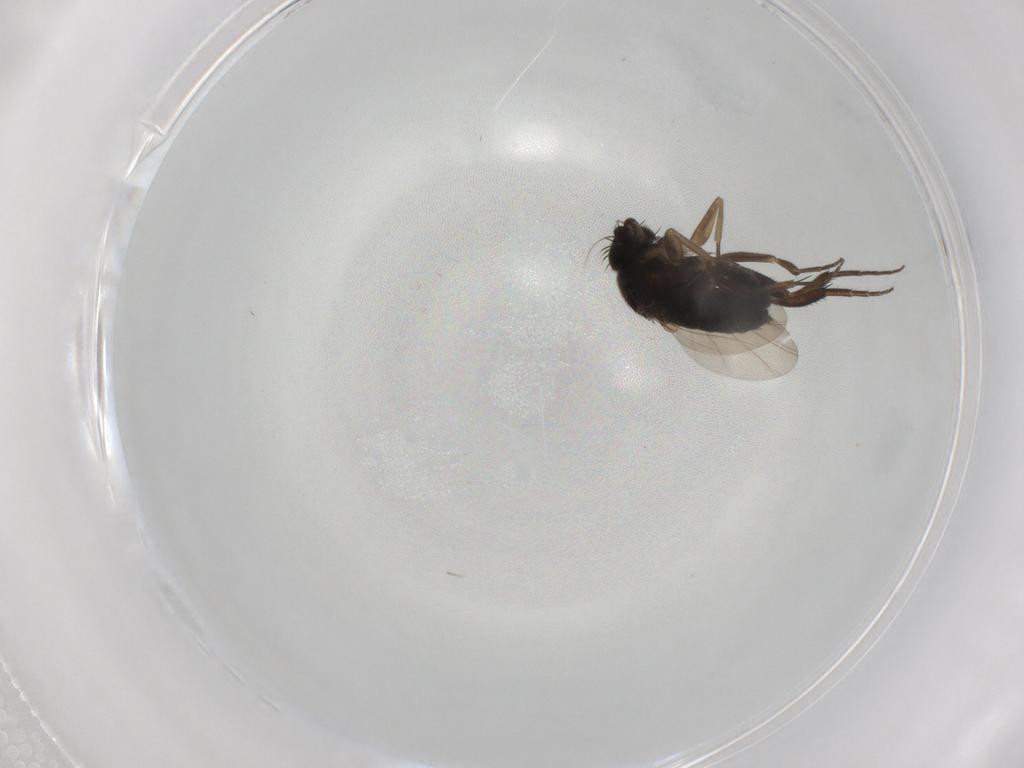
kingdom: Animalia
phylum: Arthropoda
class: Insecta
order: Diptera
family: Phoridae
